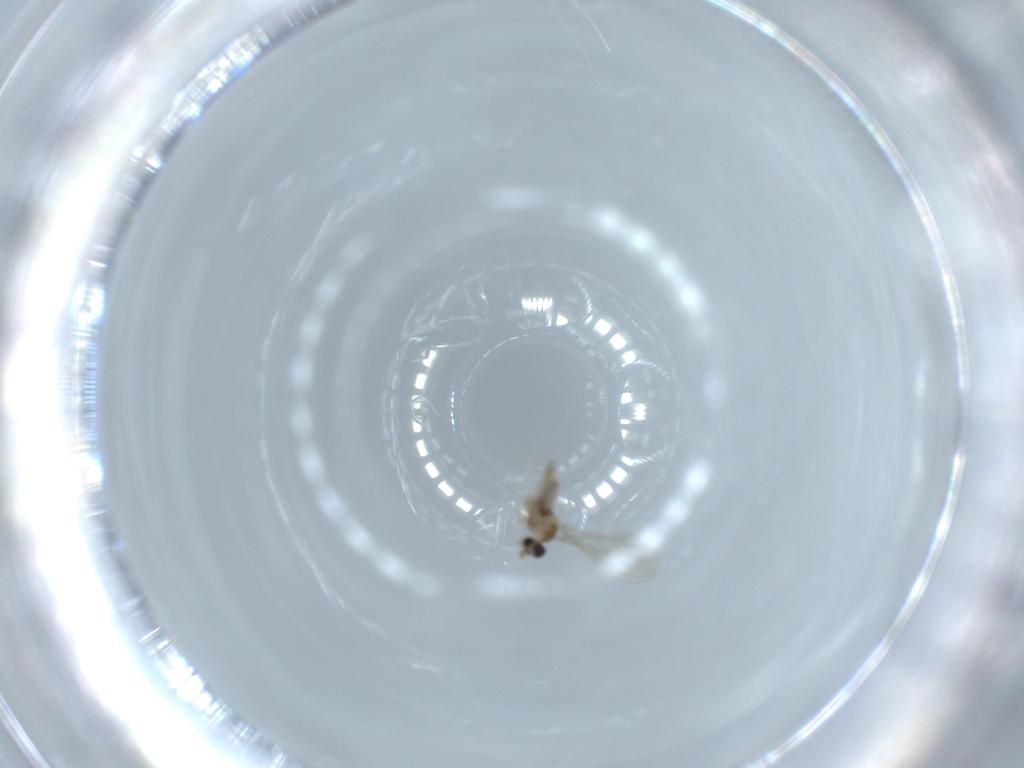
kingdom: Animalia
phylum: Arthropoda
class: Insecta
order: Diptera
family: Cecidomyiidae
